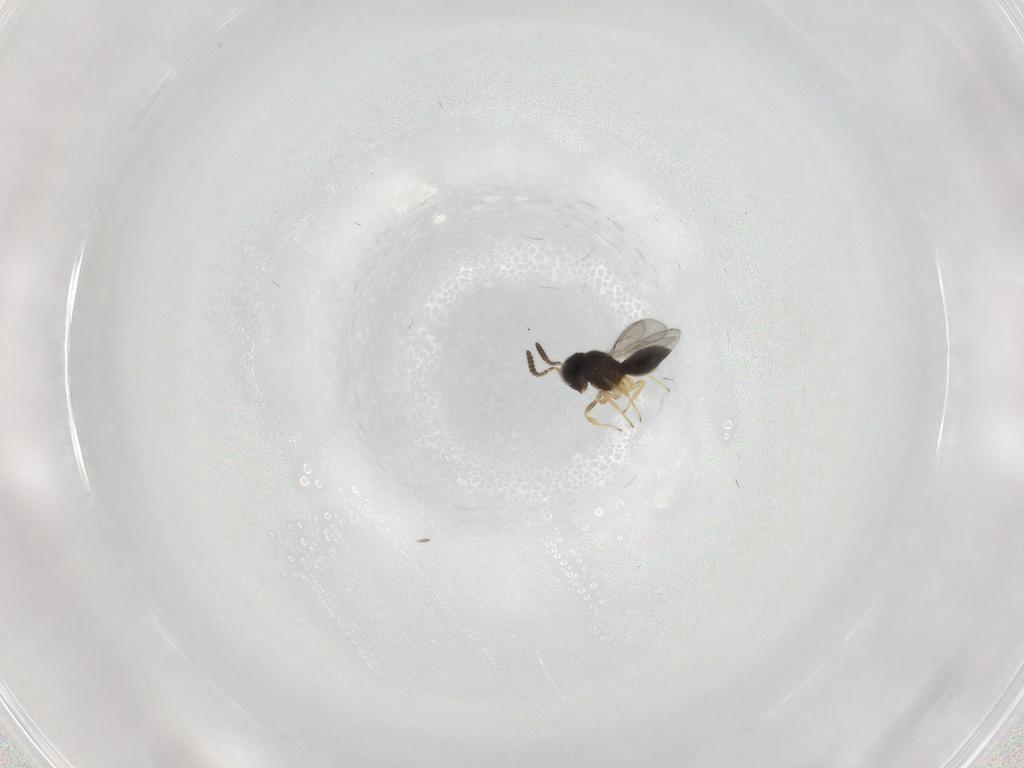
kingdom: Animalia
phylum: Arthropoda
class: Insecta
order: Hymenoptera
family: Scelionidae
